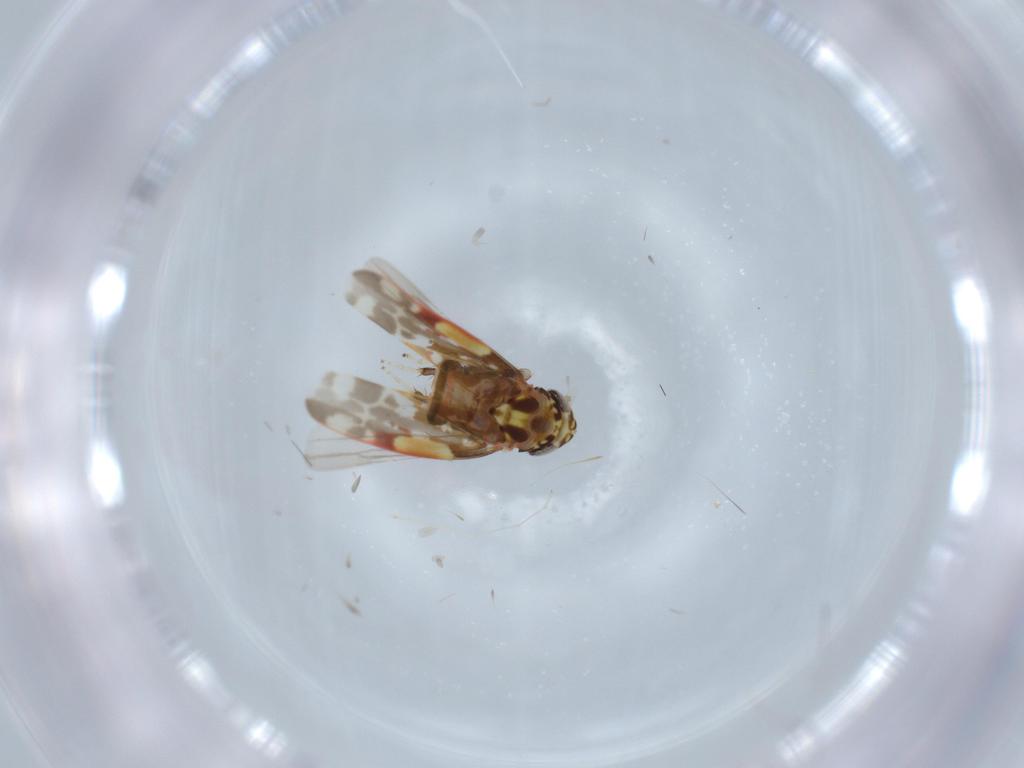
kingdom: Animalia
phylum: Arthropoda
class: Insecta
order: Hemiptera
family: Cicadellidae
